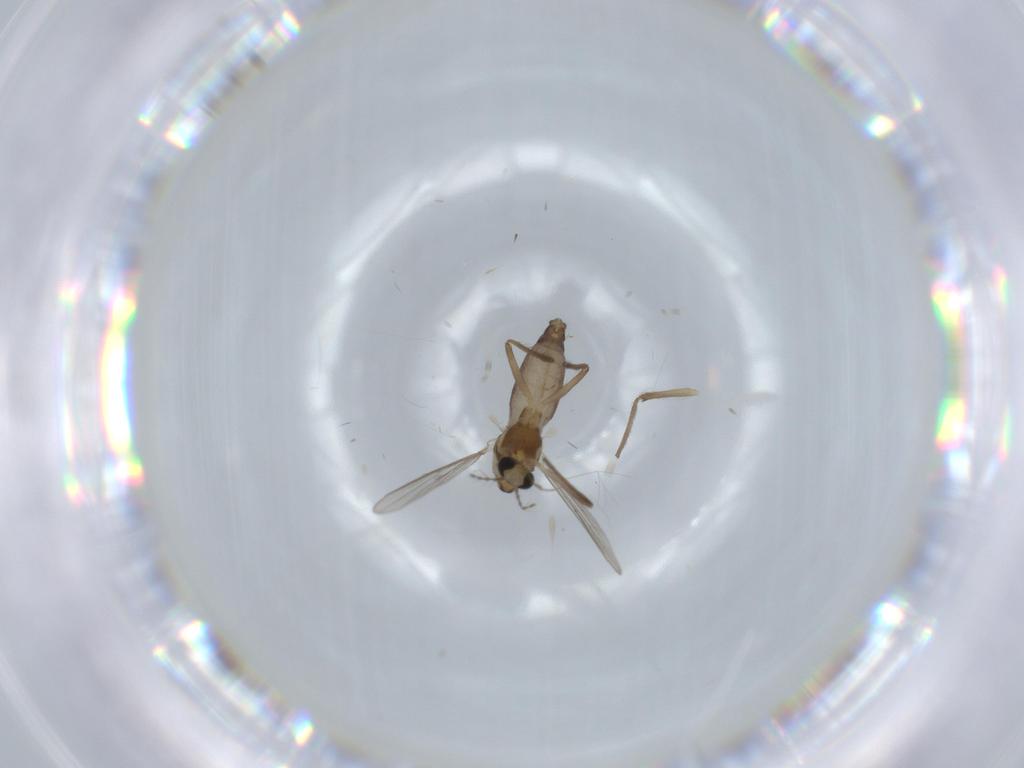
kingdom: Animalia
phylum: Arthropoda
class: Insecta
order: Diptera
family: Chironomidae
